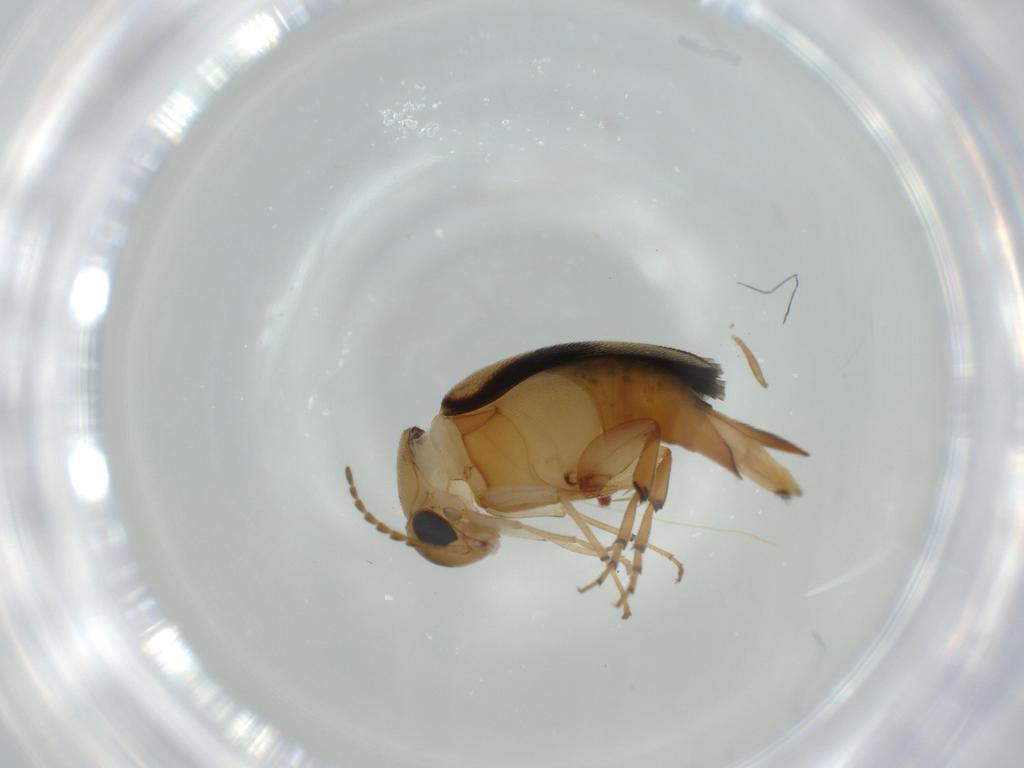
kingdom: Animalia
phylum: Arthropoda
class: Insecta
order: Coleoptera
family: Mordellidae
